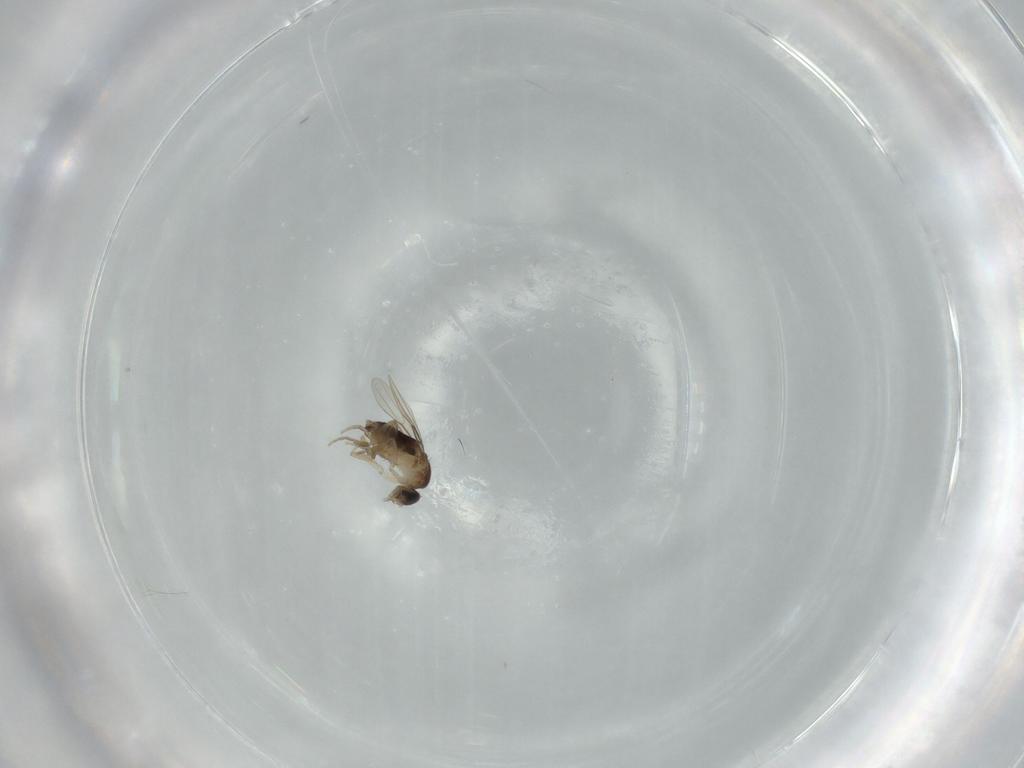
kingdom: Animalia
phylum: Arthropoda
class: Insecta
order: Diptera
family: Phoridae
